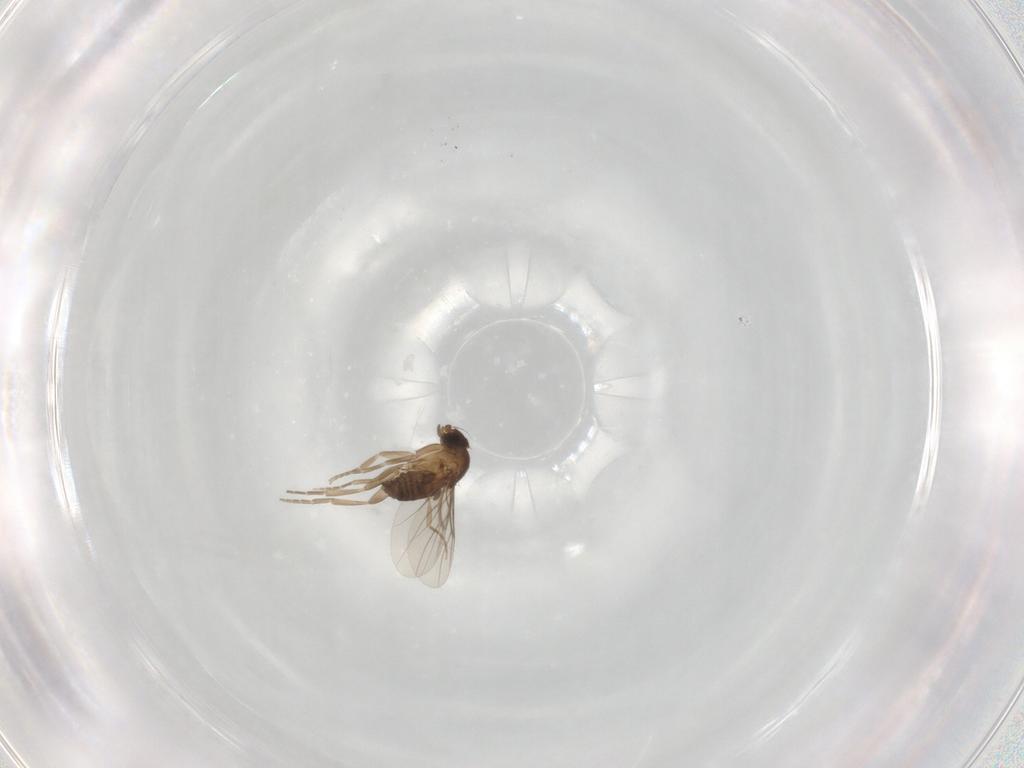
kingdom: Animalia
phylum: Arthropoda
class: Insecta
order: Diptera
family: Phoridae
